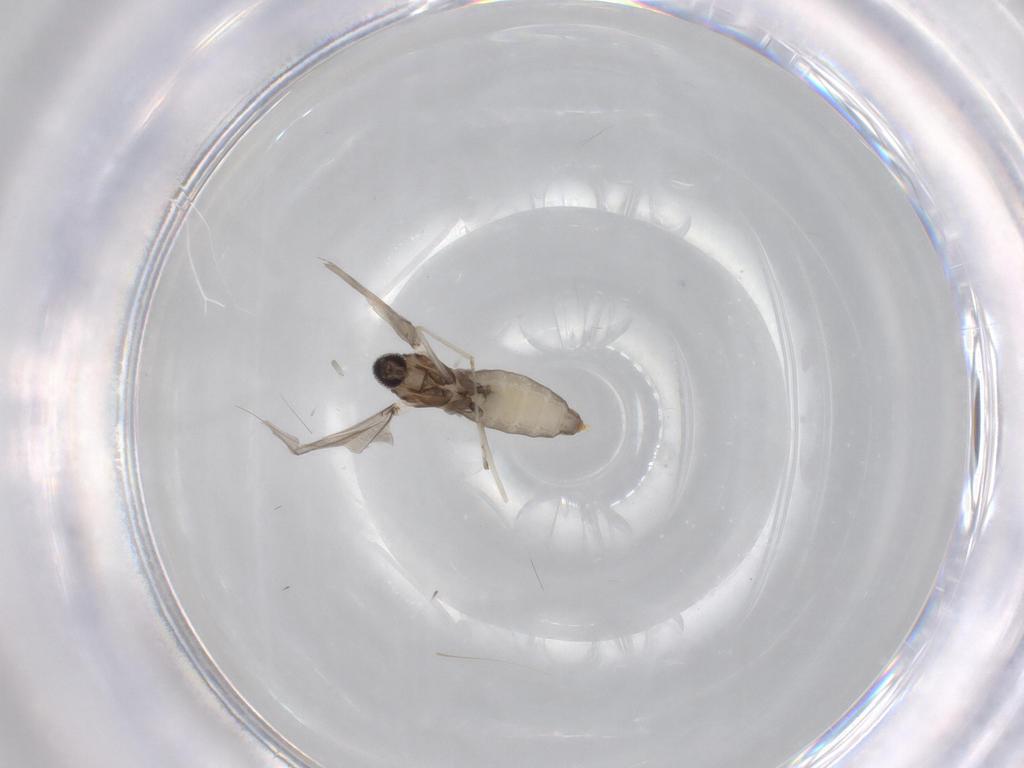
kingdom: Animalia
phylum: Arthropoda
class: Insecta
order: Diptera
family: Cecidomyiidae
